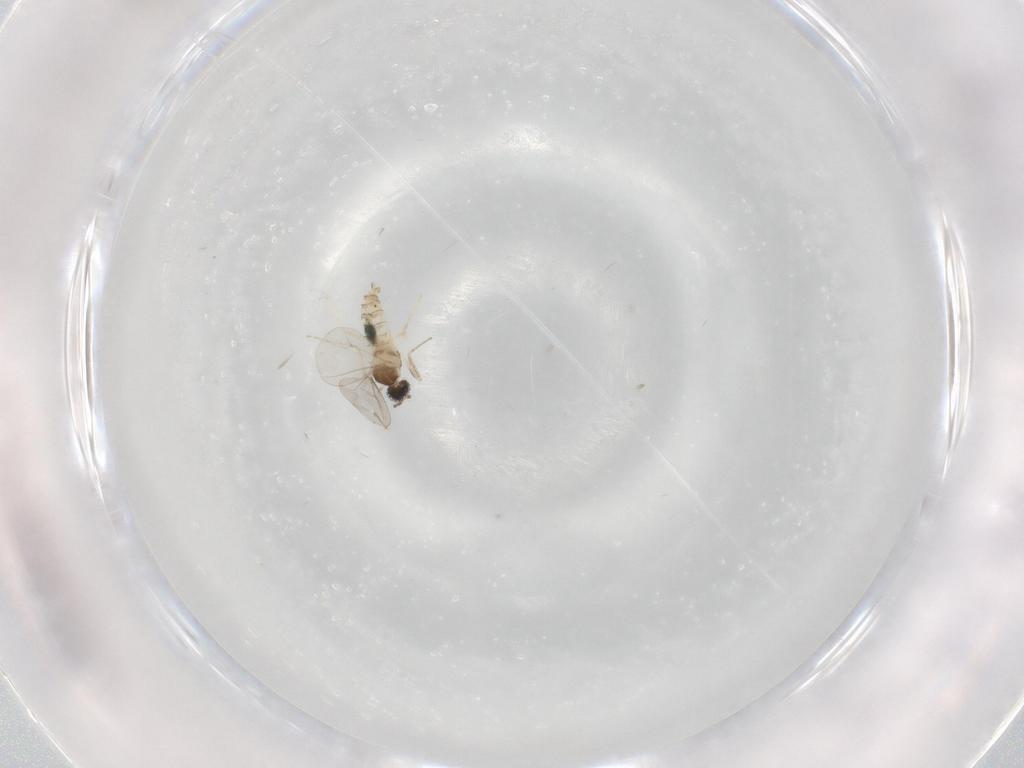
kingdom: Animalia
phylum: Arthropoda
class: Insecta
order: Diptera
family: Cecidomyiidae
